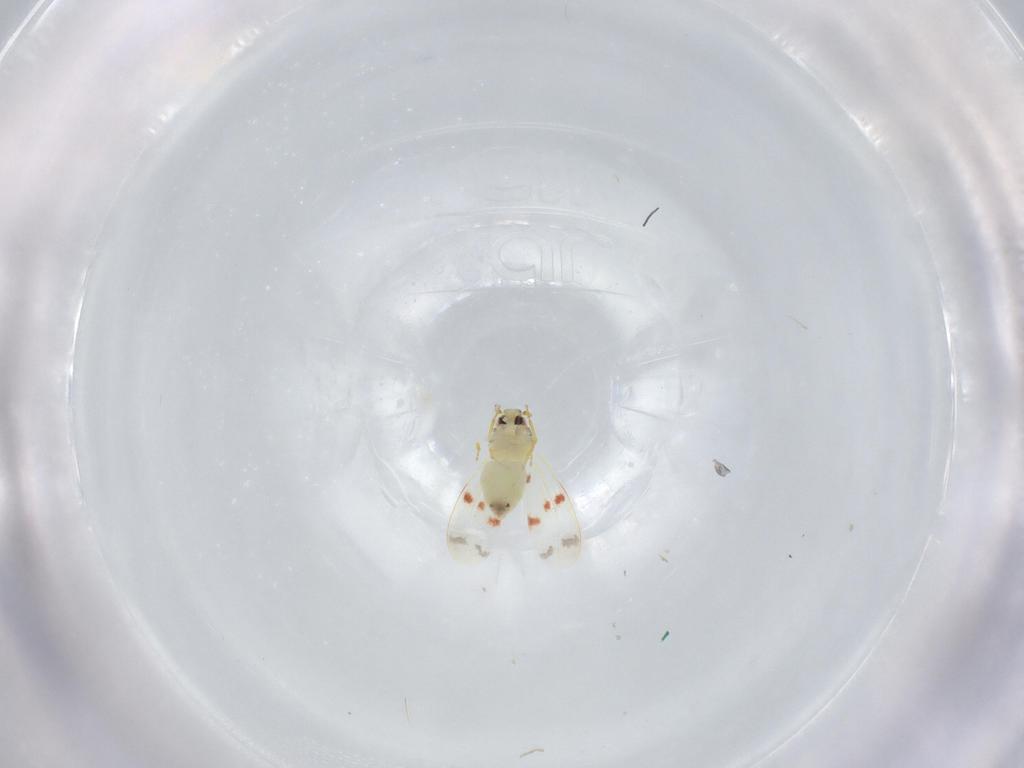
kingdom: Animalia
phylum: Arthropoda
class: Insecta
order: Hemiptera
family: Aleyrodidae
